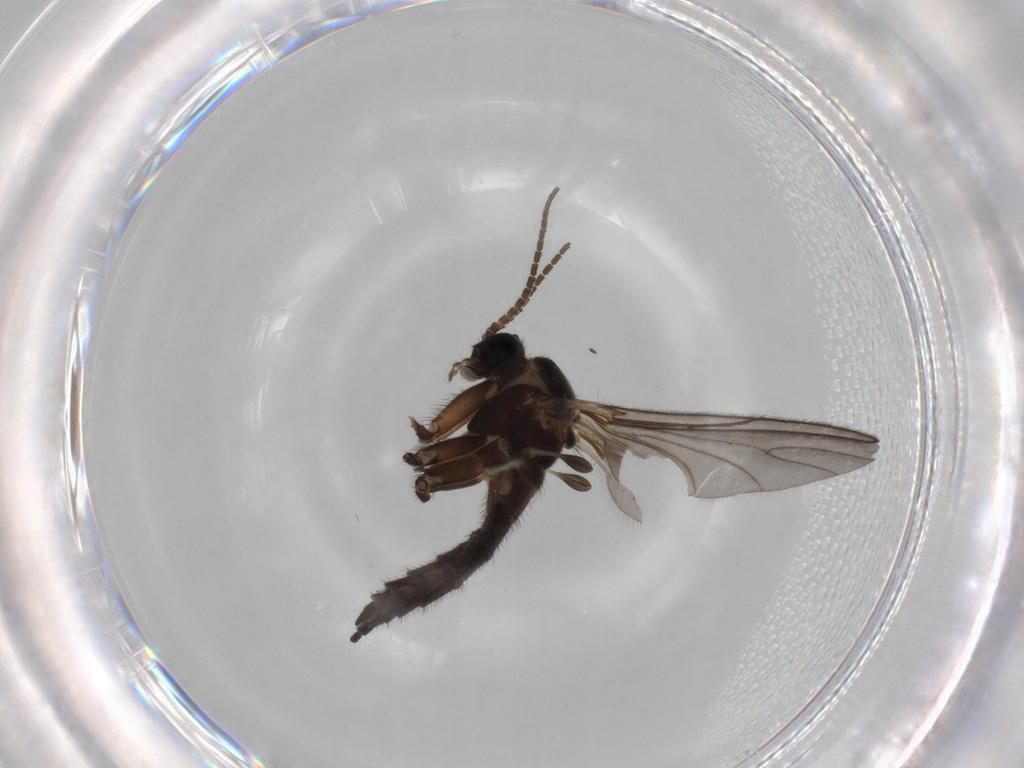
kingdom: Animalia
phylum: Arthropoda
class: Insecta
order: Diptera
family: Sciaridae
